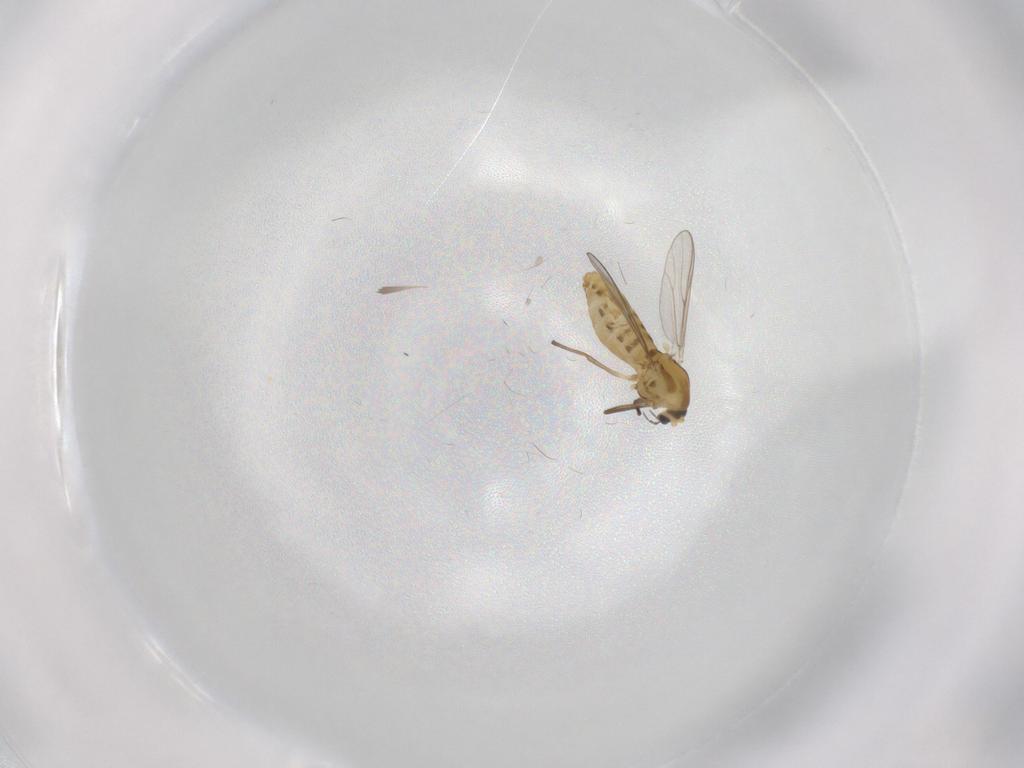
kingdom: Animalia
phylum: Arthropoda
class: Insecta
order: Diptera
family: Chironomidae
